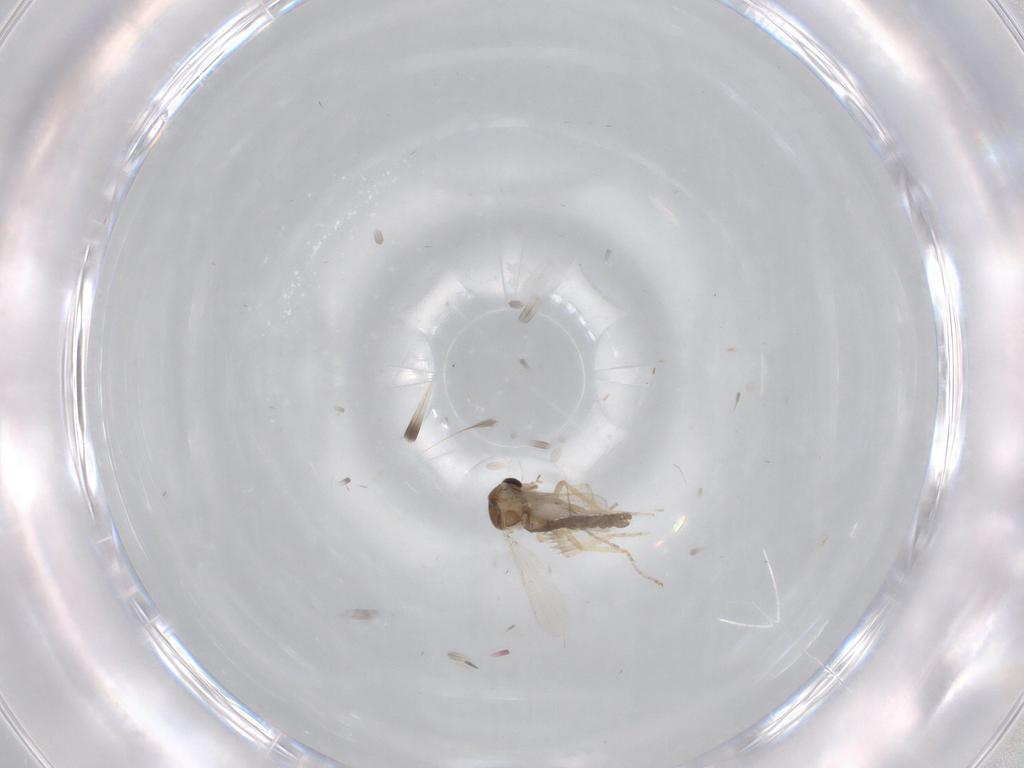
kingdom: Animalia
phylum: Arthropoda
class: Insecta
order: Diptera
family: Ceratopogonidae
